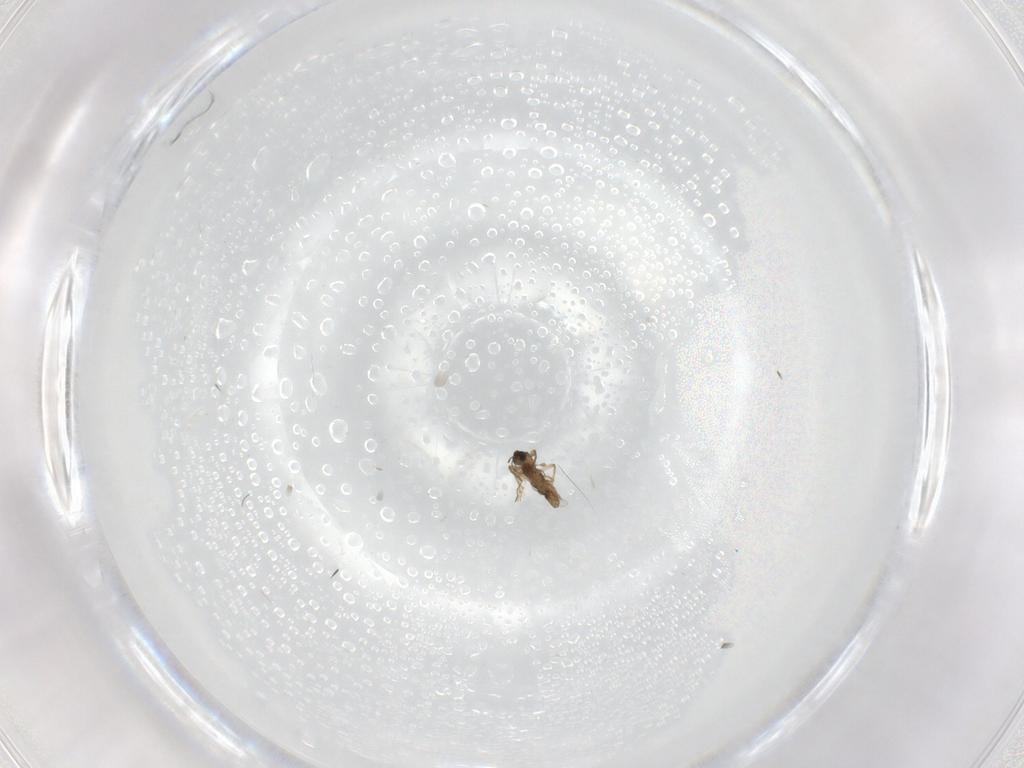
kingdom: Animalia
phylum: Arthropoda
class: Insecta
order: Diptera
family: Chironomidae
